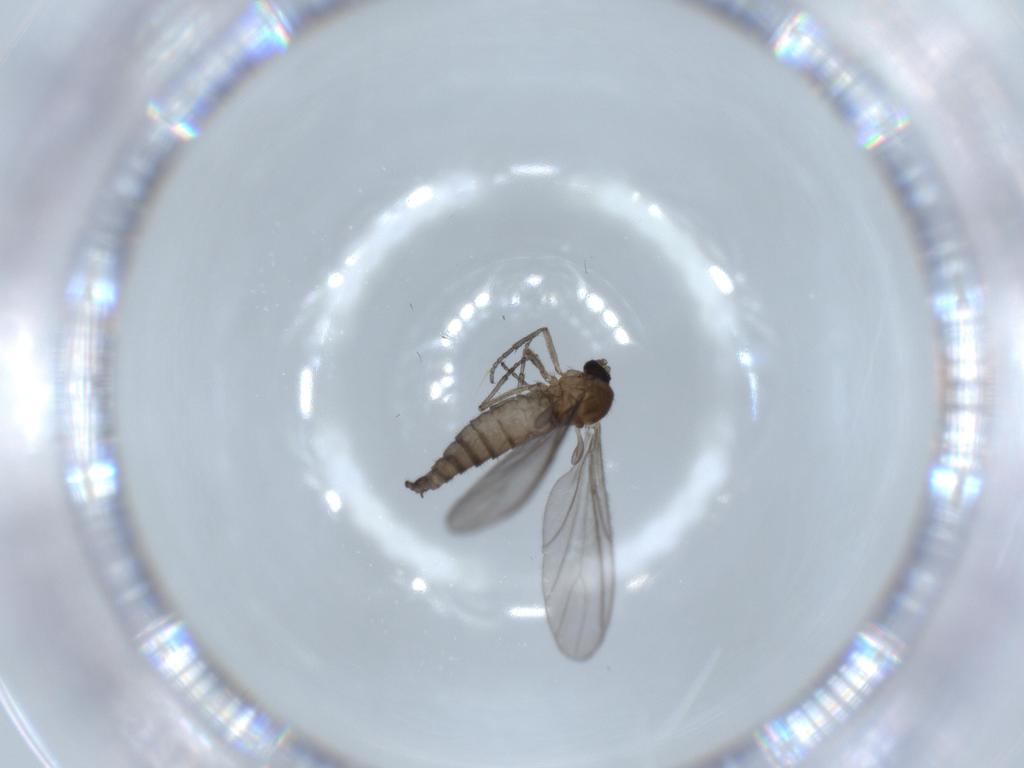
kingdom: Animalia
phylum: Arthropoda
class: Insecta
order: Diptera
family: Sciaridae
